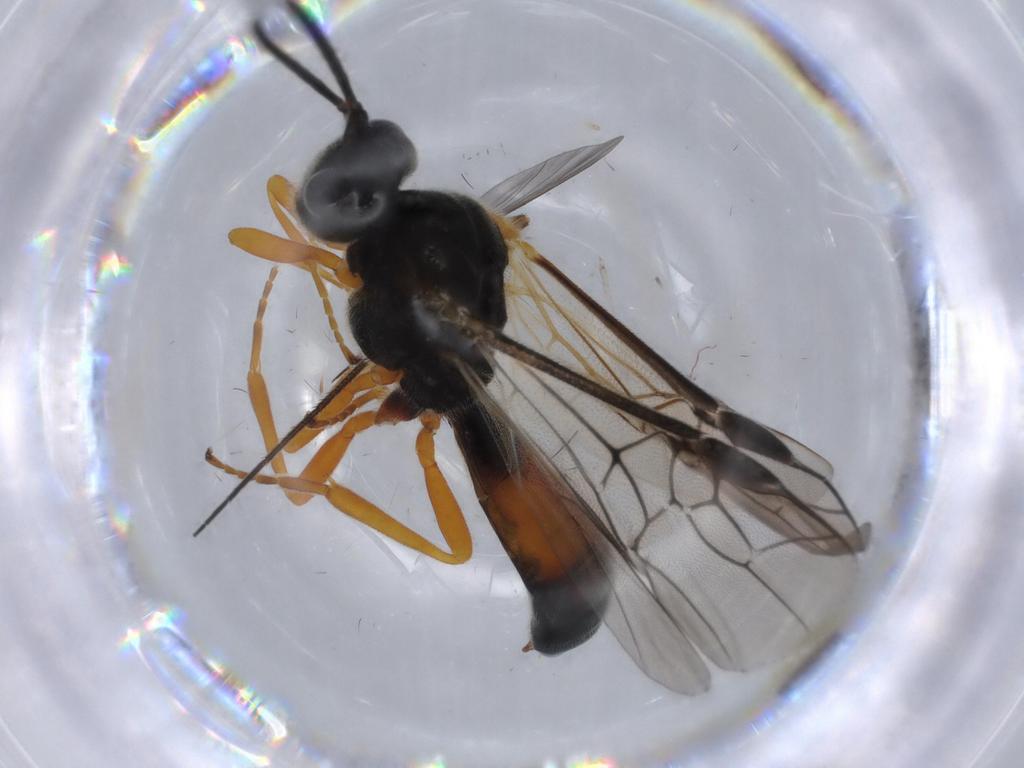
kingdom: Animalia
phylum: Arthropoda
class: Insecta
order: Hymenoptera
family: Braconidae
